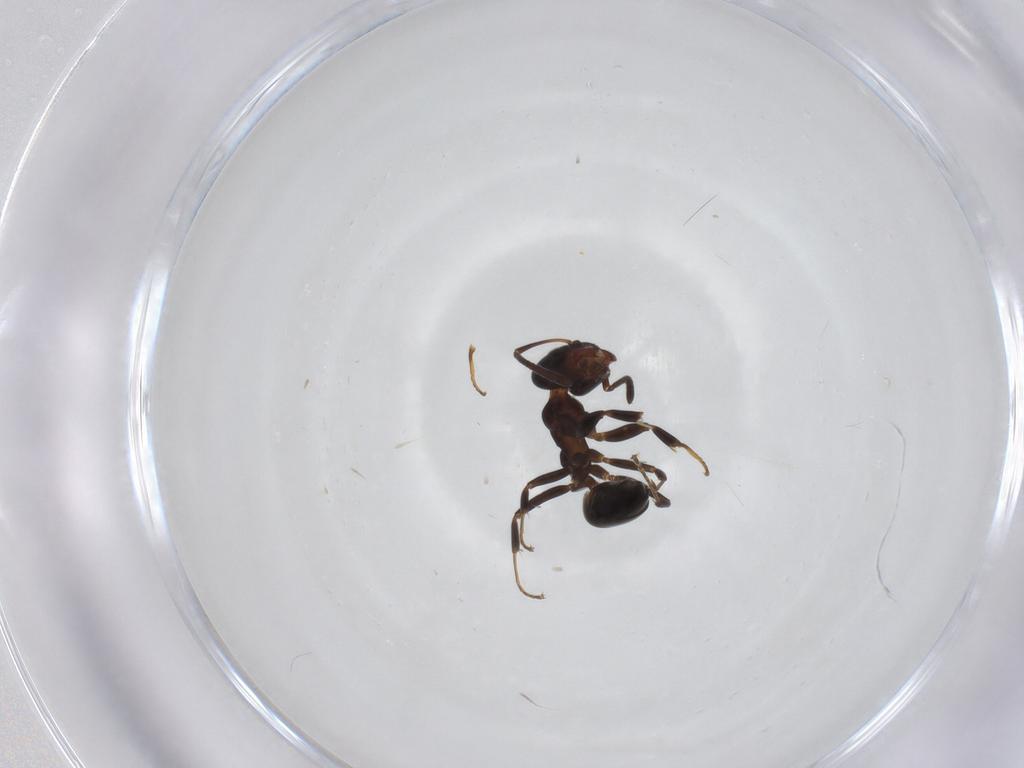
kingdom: Animalia
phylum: Arthropoda
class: Insecta
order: Hymenoptera
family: Formicidae
